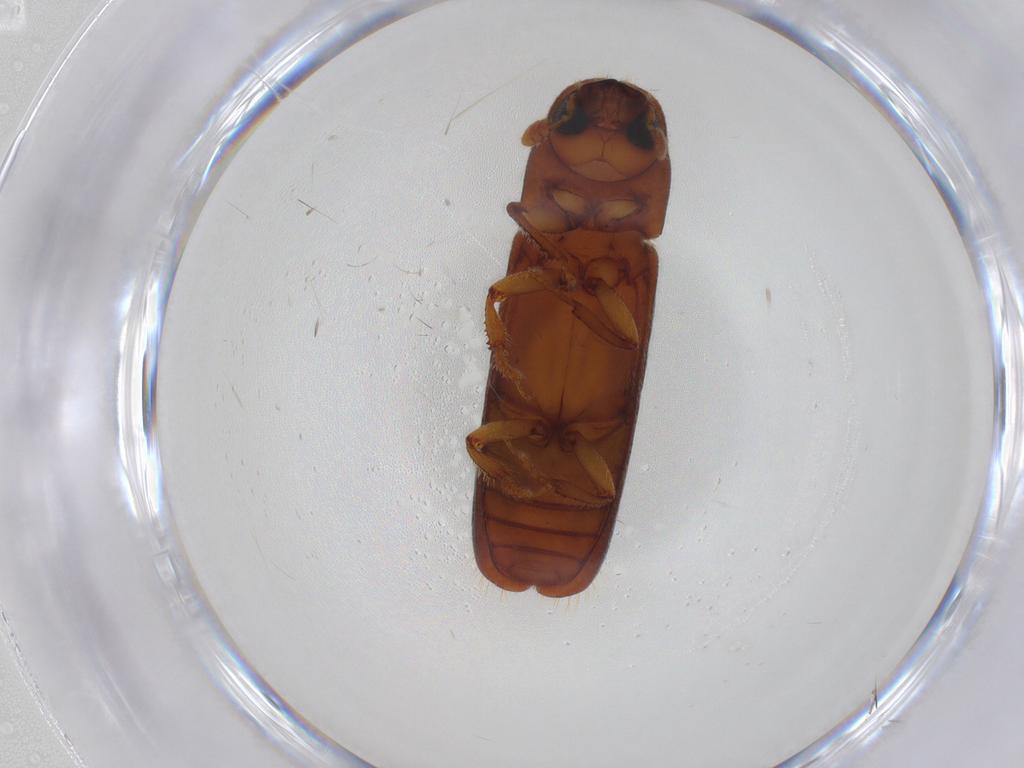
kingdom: Animalia
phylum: Arthropoda
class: Insecta
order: Coleoptera
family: Curculionidae
